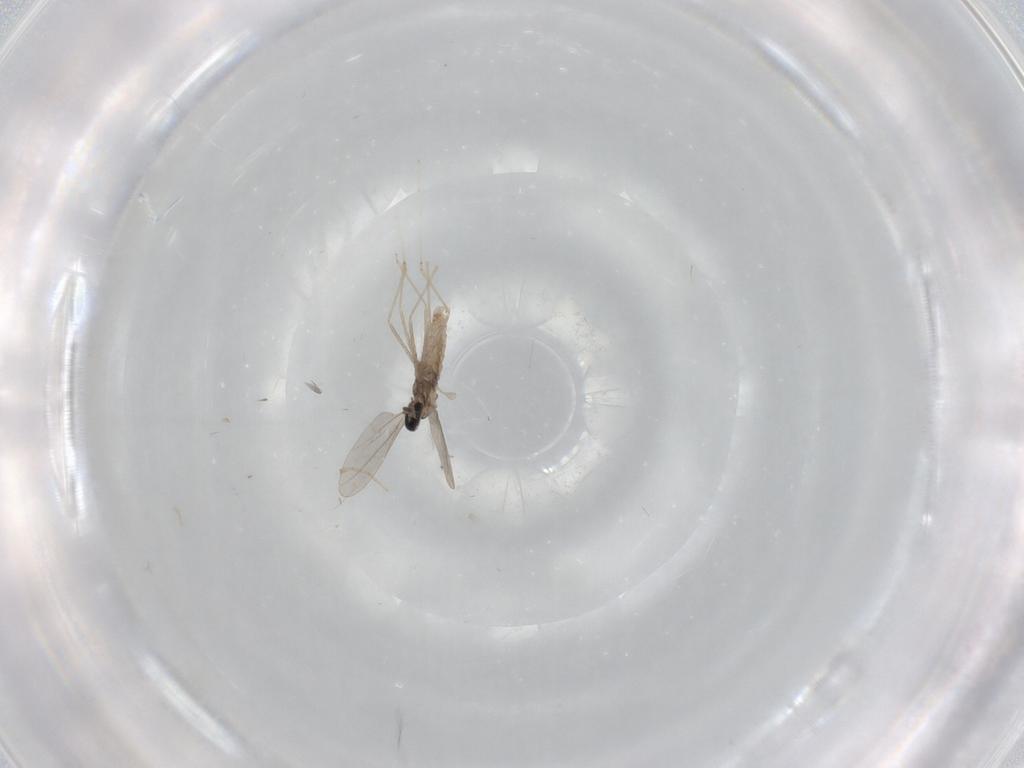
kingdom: Animalia
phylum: Arthropoda
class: Insecta
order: Diptera
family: Cecidomyiidae
